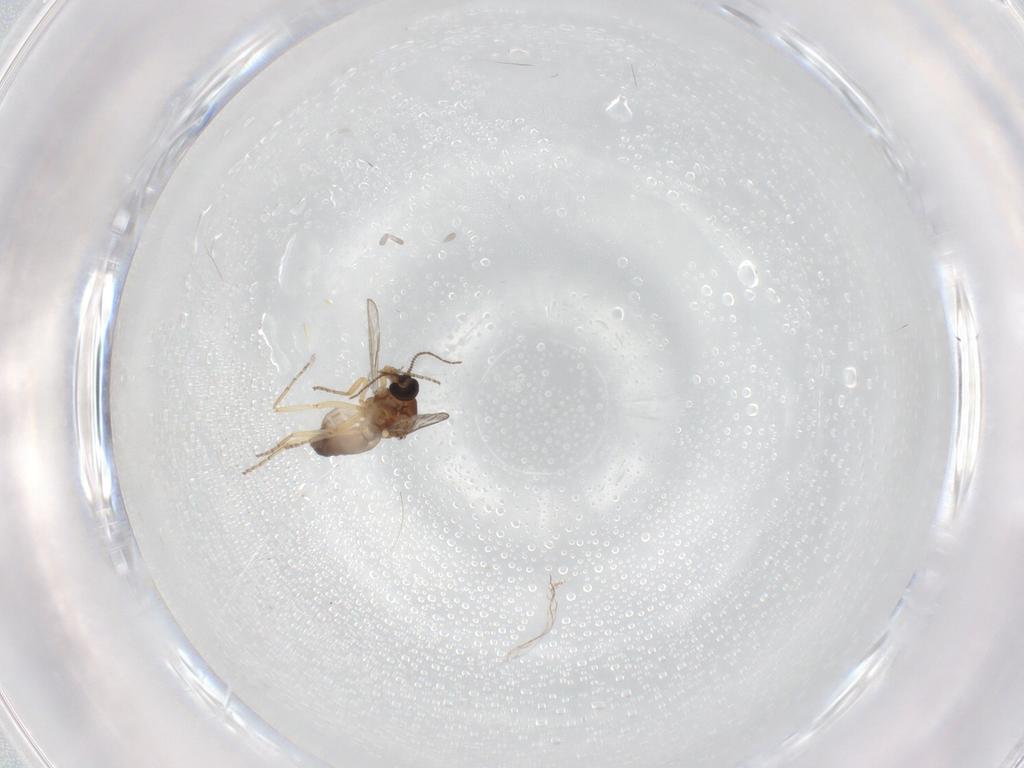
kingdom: Animalia
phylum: Arthropoda
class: Insecta
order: Diptera
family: Ceratopogonidae
